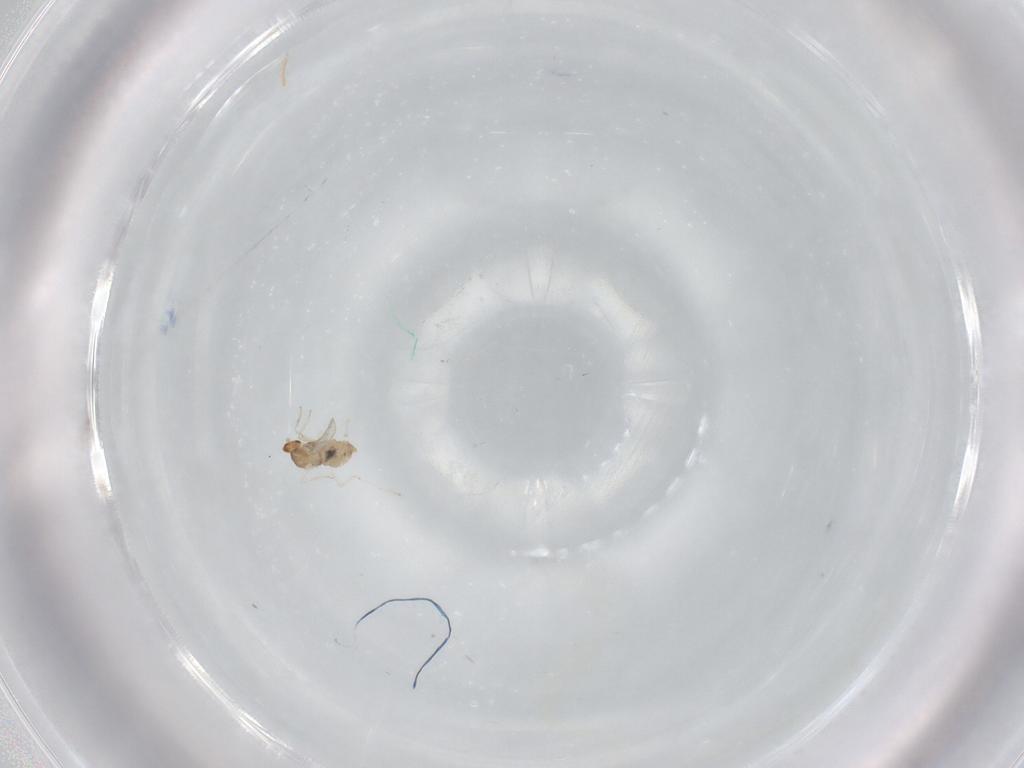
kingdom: Animalia
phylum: Arthropoda
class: Insecta
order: Diptera
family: Cecidomyiidae
